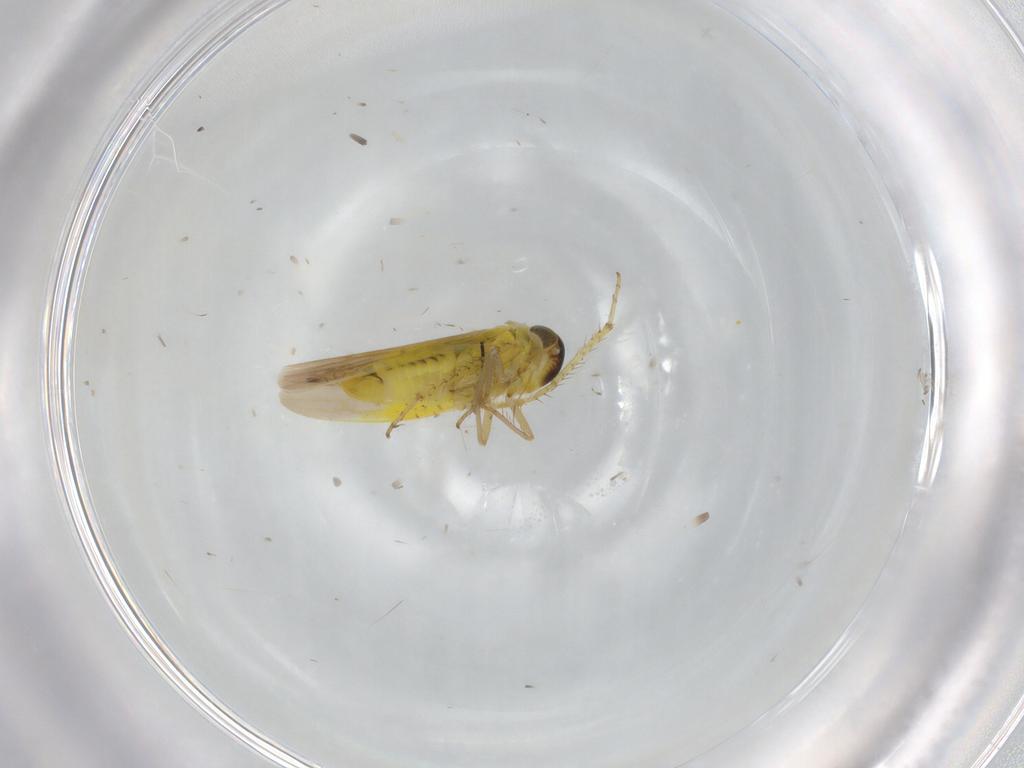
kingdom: Animalia
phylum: Arthropoda
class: Insecta
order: Hemiptera
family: Cicadellidae
